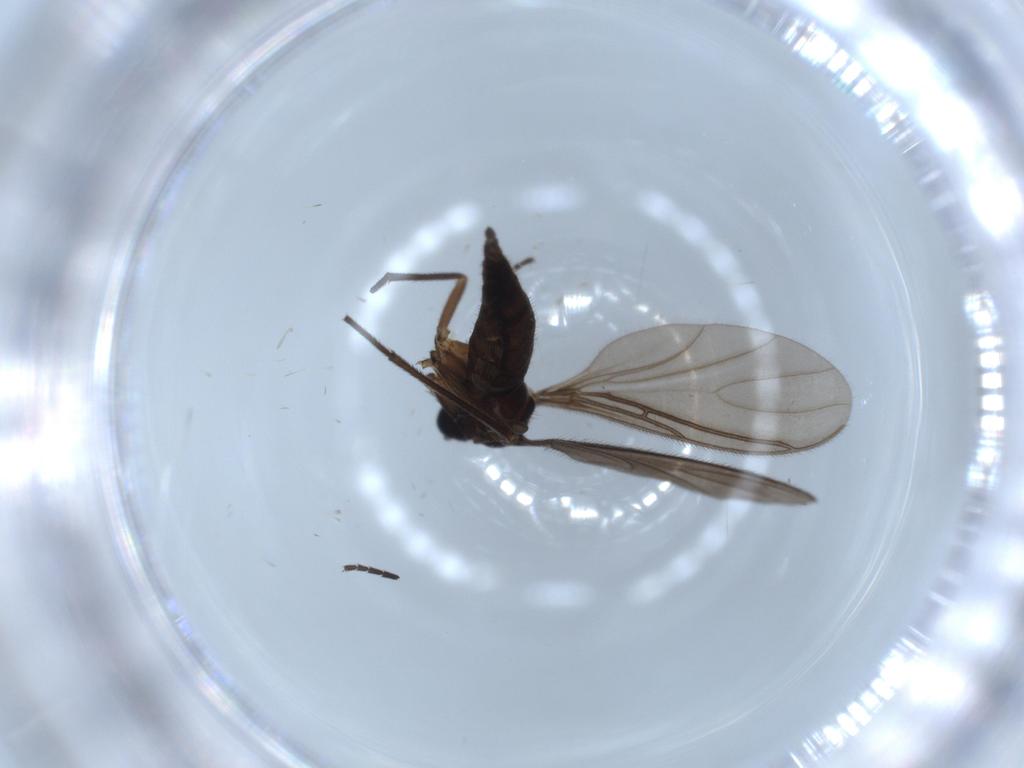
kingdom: Animalia
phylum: Arthropoda
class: Insecta
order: Diptera
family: Sciaridae
